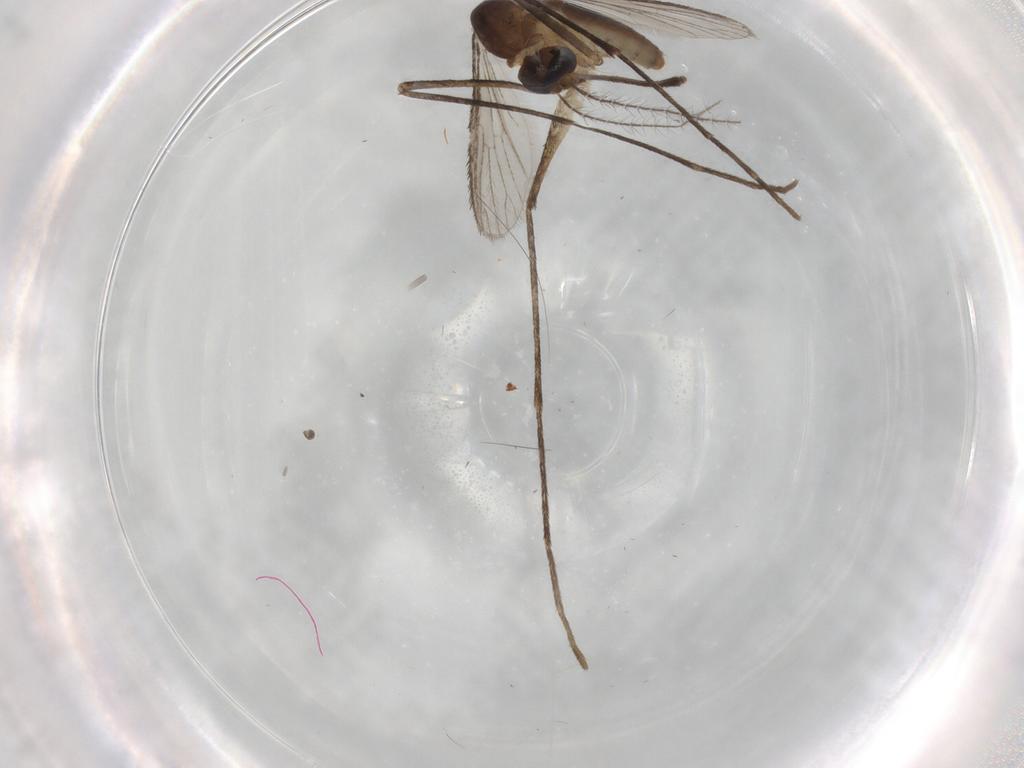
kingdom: Animalia
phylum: Arthropoda
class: Insecta
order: Diptera
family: Culicidae
